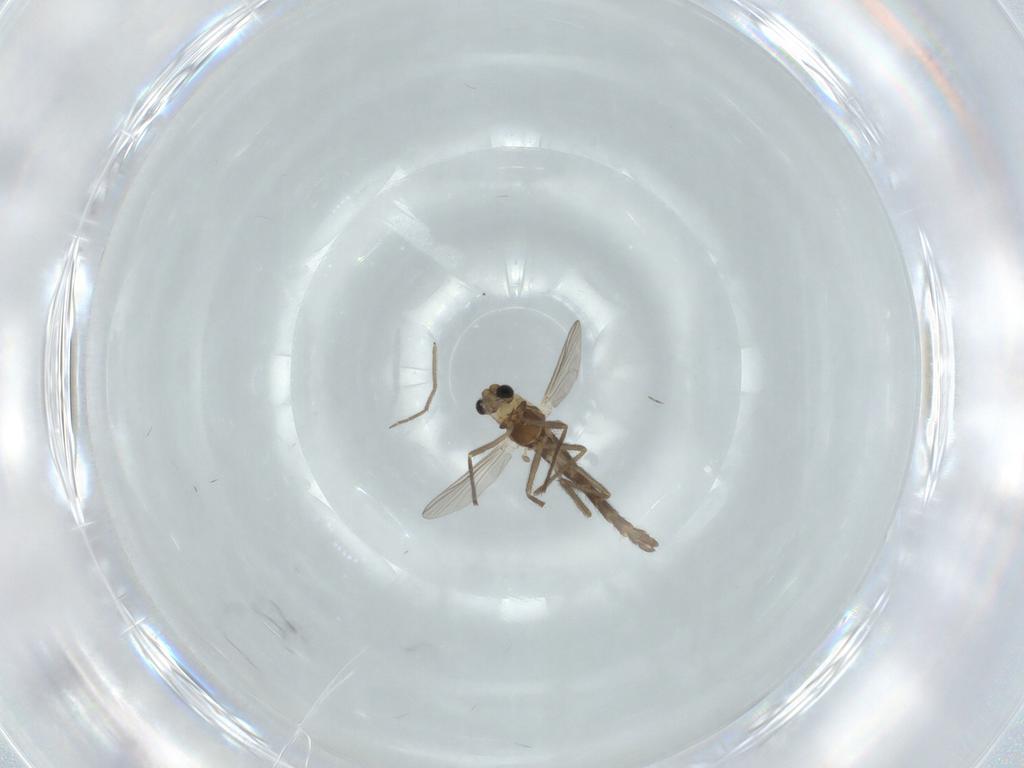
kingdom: Animalia
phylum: Arthropoda
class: Insecta
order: Diptera
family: Chironomidae
